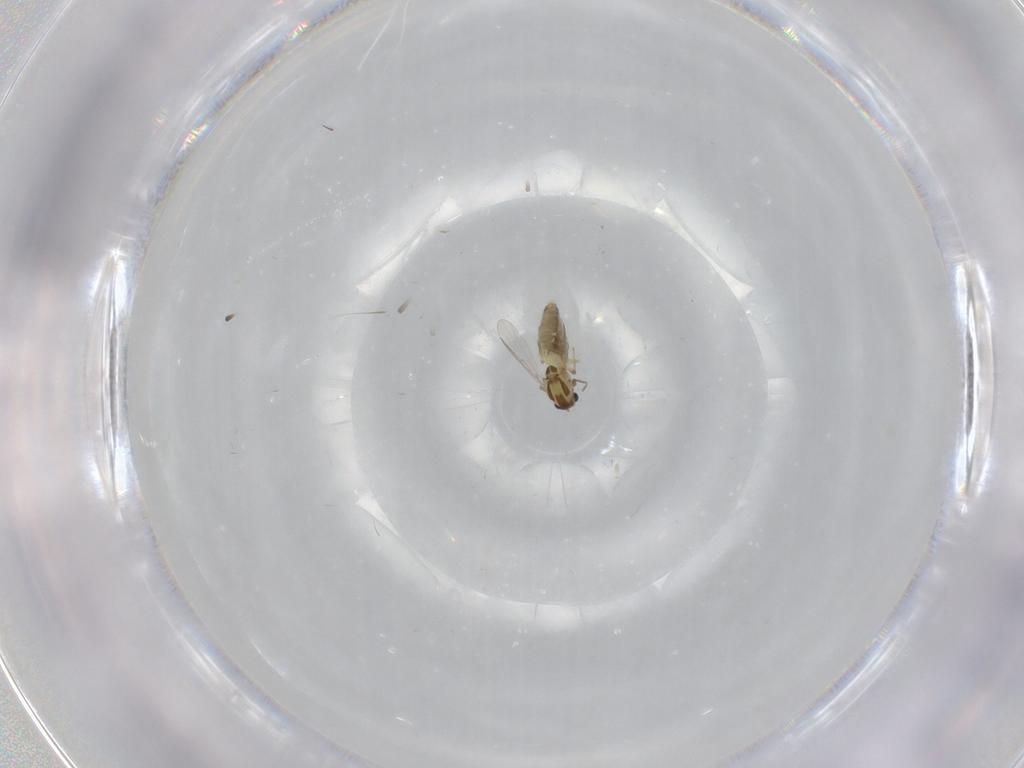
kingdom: Animalia
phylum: Arthropoda
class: Insecta
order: Diptera
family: Chironomidae
